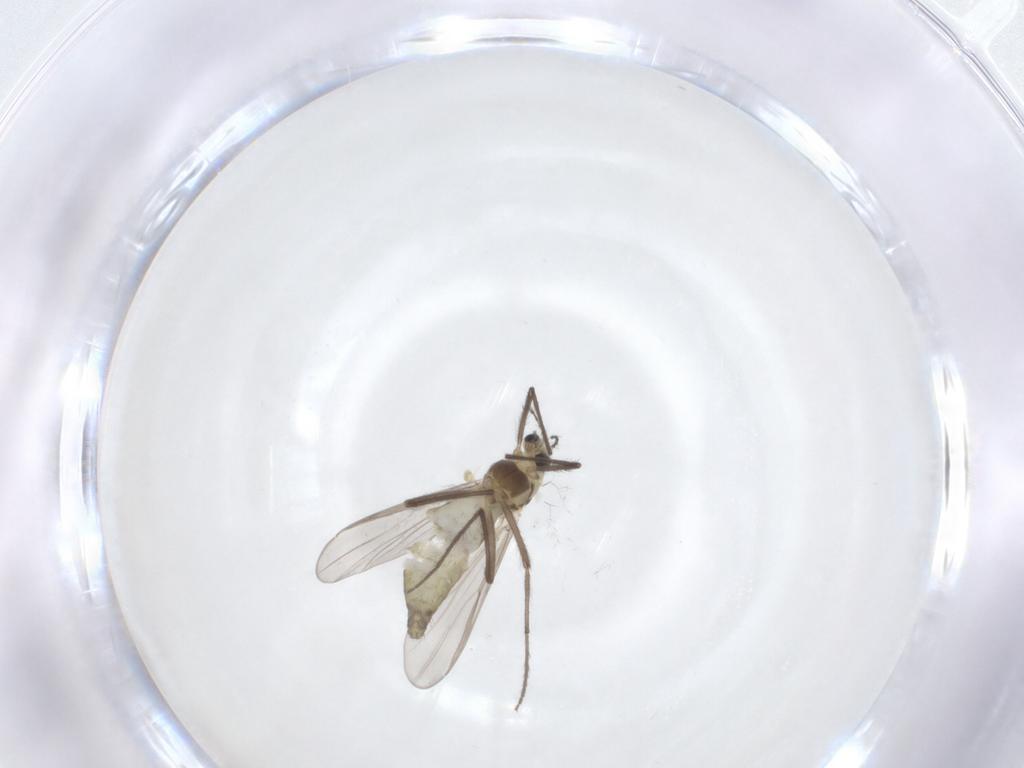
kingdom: Animalia
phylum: Arthropoda
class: Insecta
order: Diptera
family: Chironomidae
